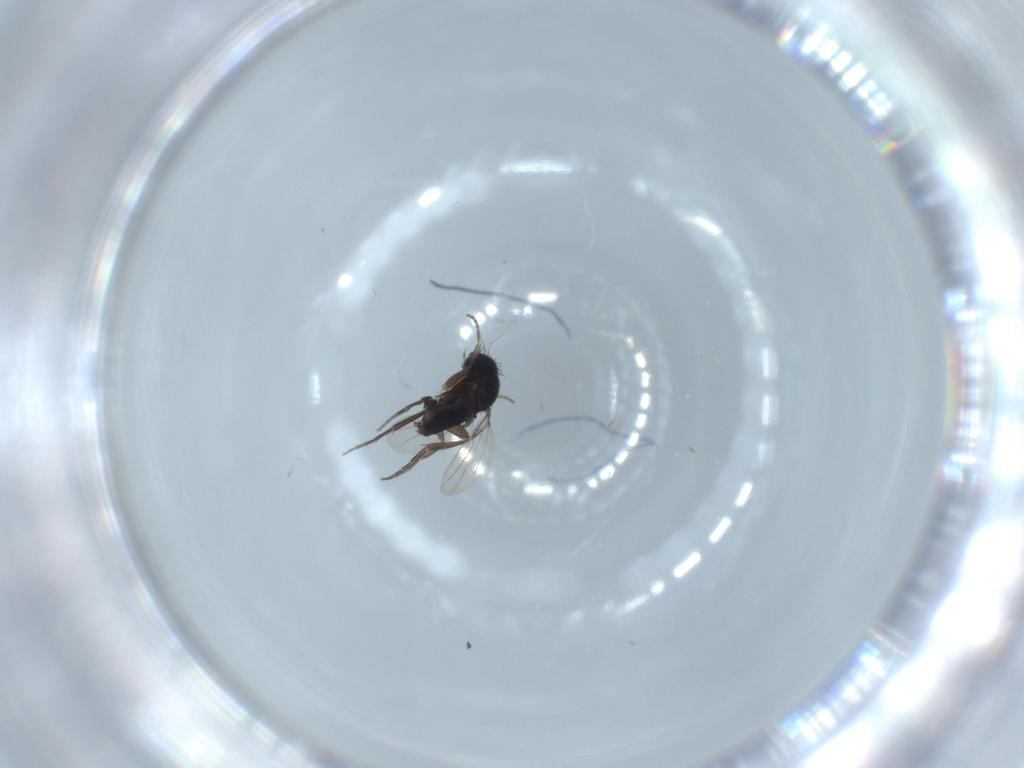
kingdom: Animalia
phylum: Arthropoda
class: Insecta
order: Diptera
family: Phoridae
